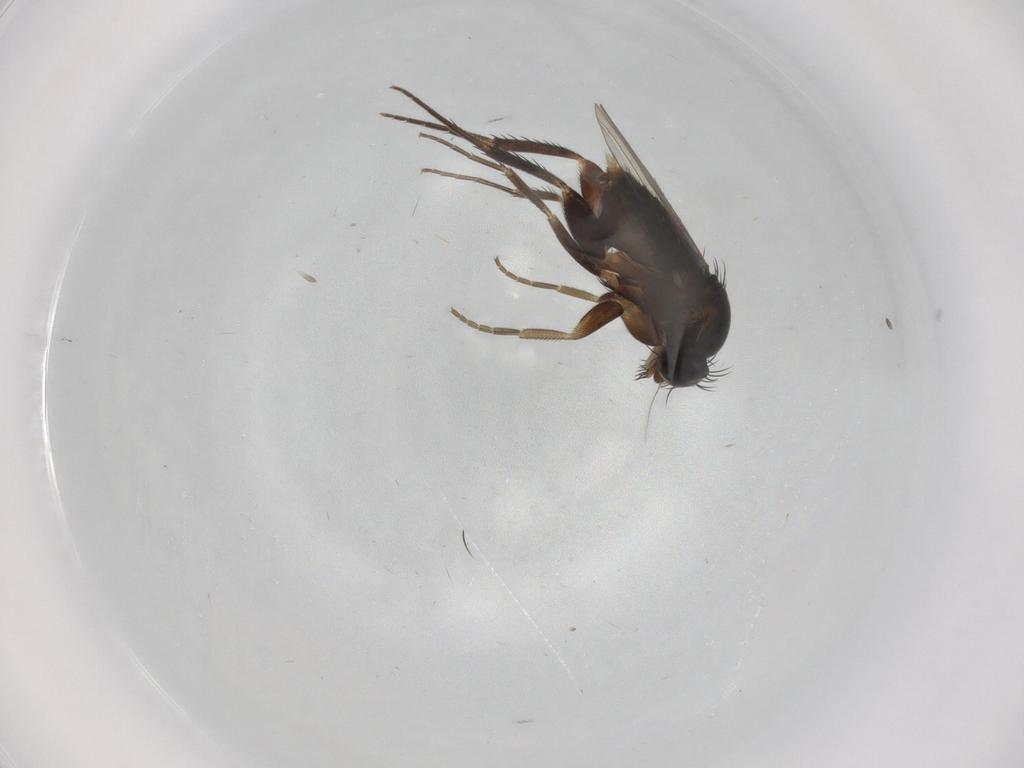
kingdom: Animalia
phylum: Arthropoda
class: Insecta
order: Diptera
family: Phoridae
